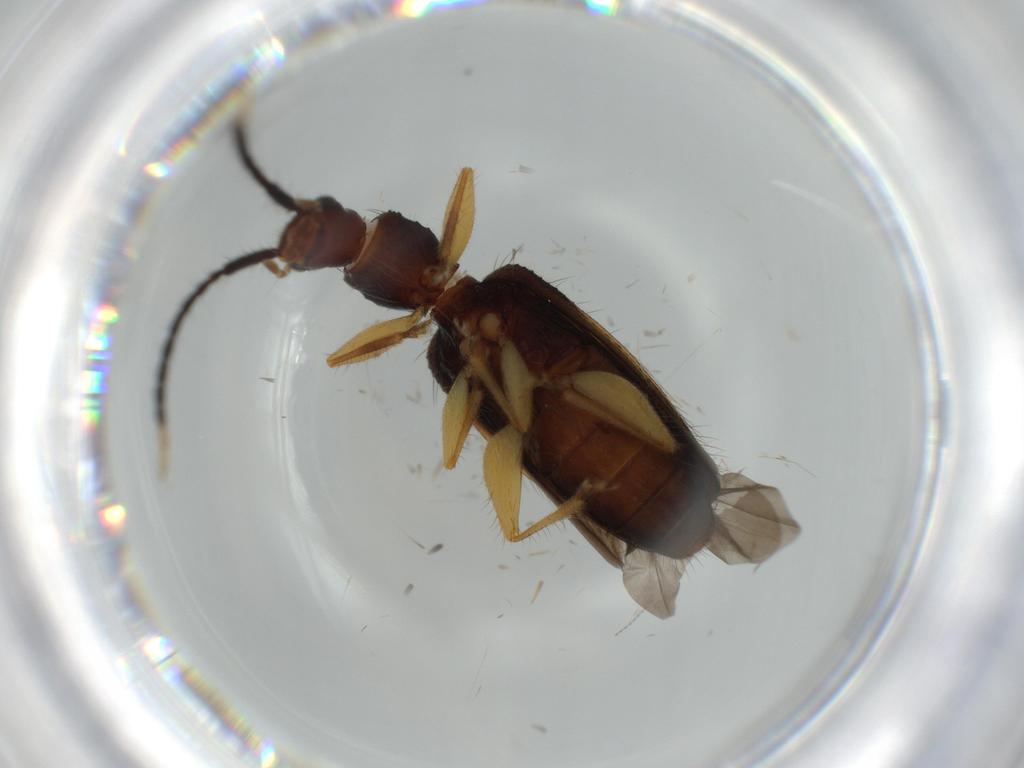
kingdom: Animalia
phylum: Arthropoda
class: Insecta
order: Coleoptera
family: Silvanidae
